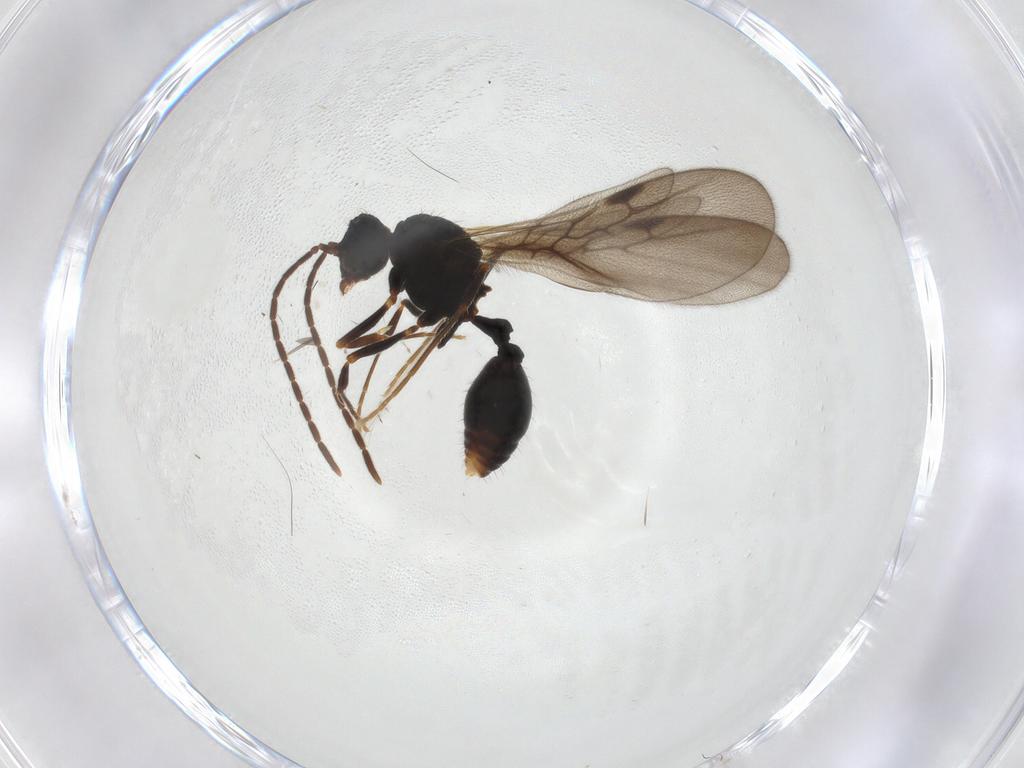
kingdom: Animalia
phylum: Arthropoda
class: Insecta
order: Hymenoptera
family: Formicidae
